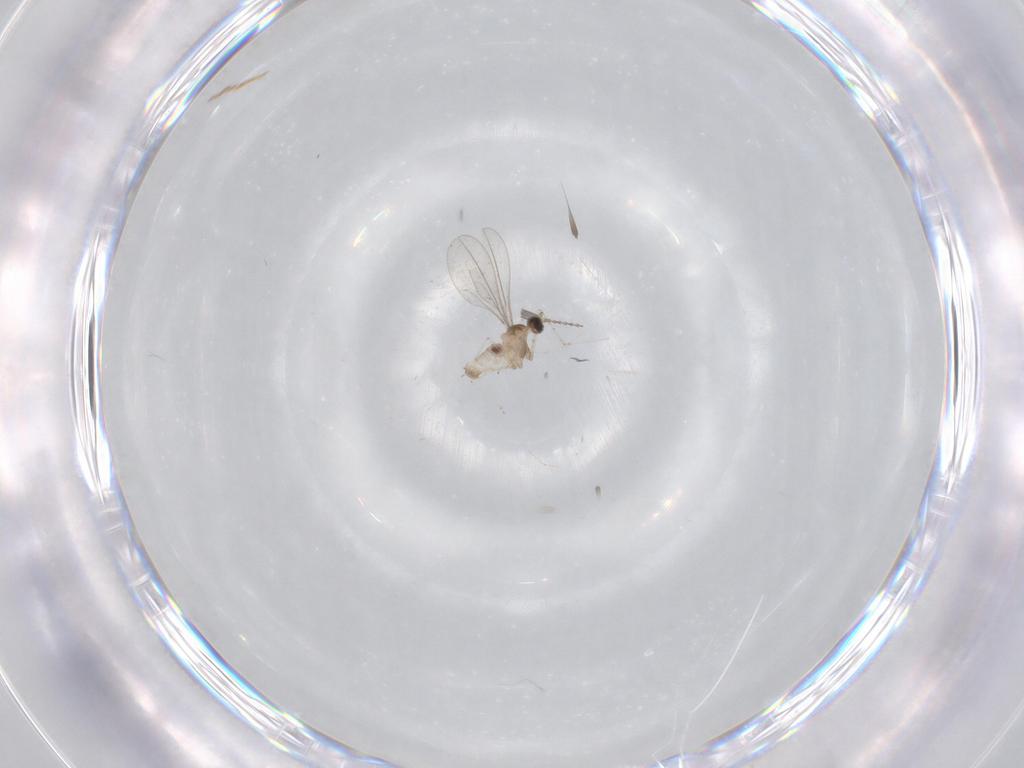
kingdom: Animalia
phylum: Arthropoda
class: Insecta
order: Diptera
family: Cecidomyiidae
